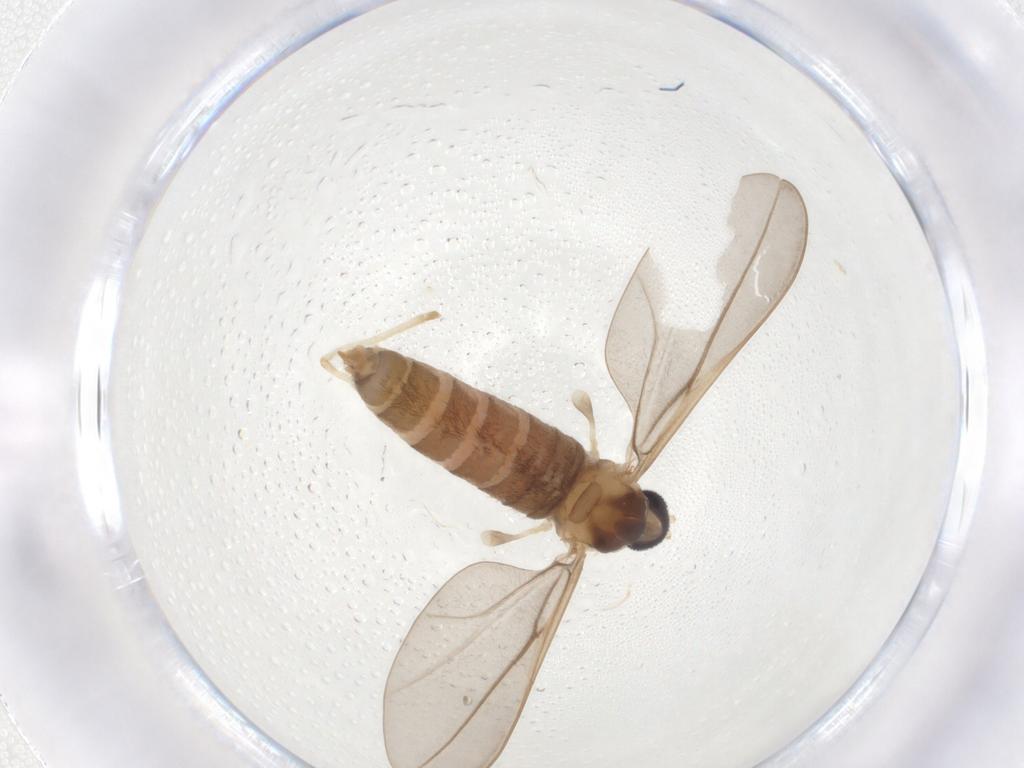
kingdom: Animalia
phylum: Arthropoda
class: Insecta
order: Diptera
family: Cecidomyiidae
